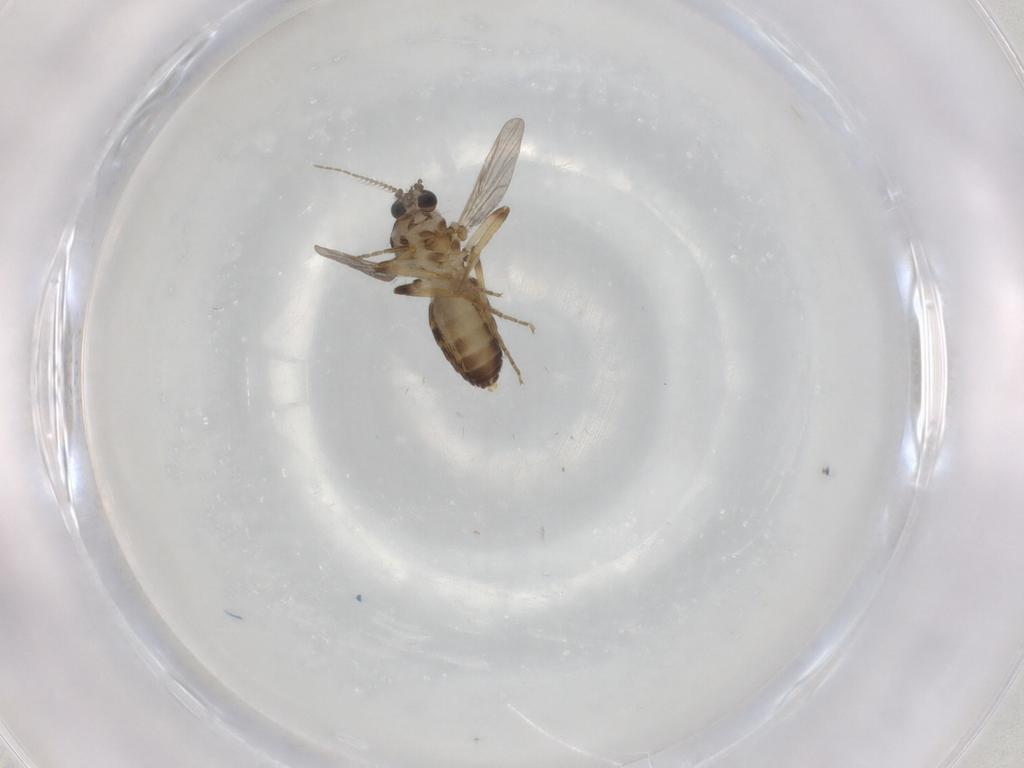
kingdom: Animalia
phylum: Arthropoda
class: Insecta
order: Diptera
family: Ceratopogonidae
